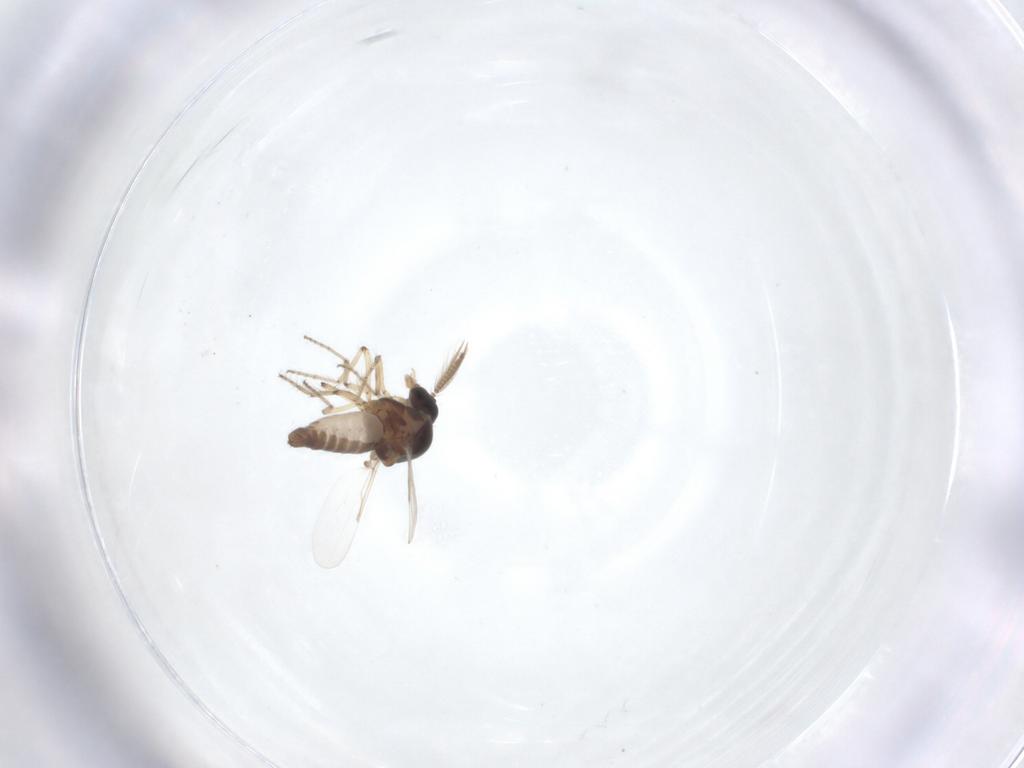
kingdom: Animalia
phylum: Arthropoda
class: Insecta
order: Diptera
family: Ceratopogonidae
